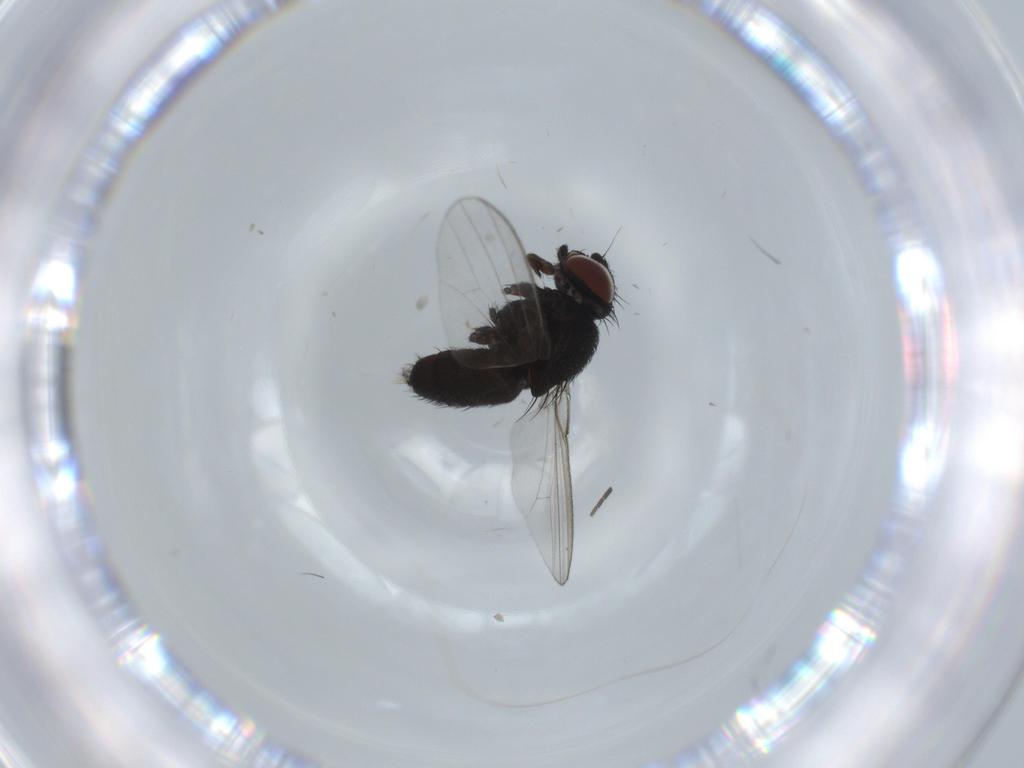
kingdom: Animalia
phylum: Arthropoda
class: Insecta
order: Diptera
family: Milichiidae
